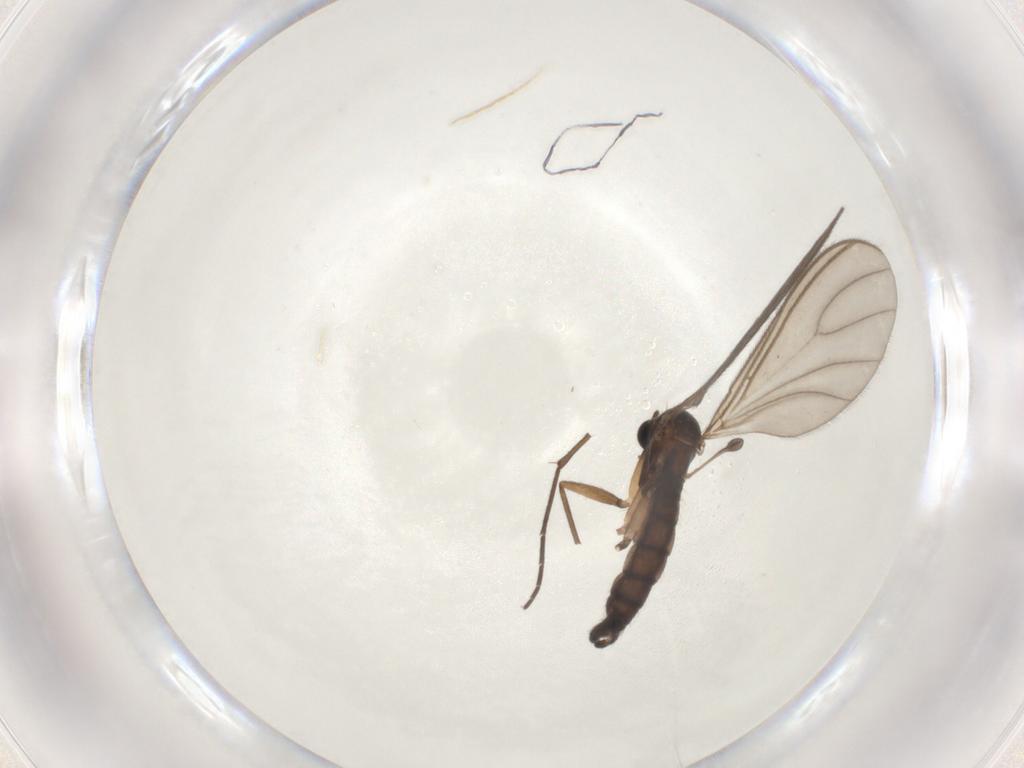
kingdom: Animalia
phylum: Arthropoda
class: Insecta
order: Diptera
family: Sciaridae
